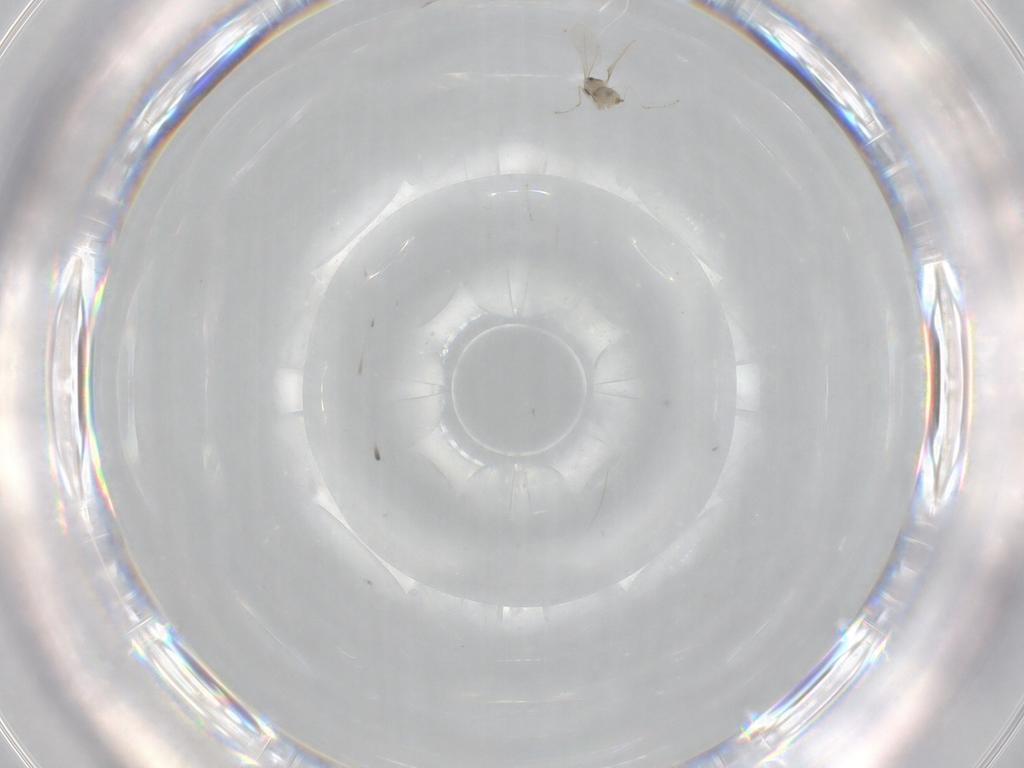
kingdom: Animalia
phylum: Arthropoda
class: Insecta
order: Diptera
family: Cecidomyiidae
